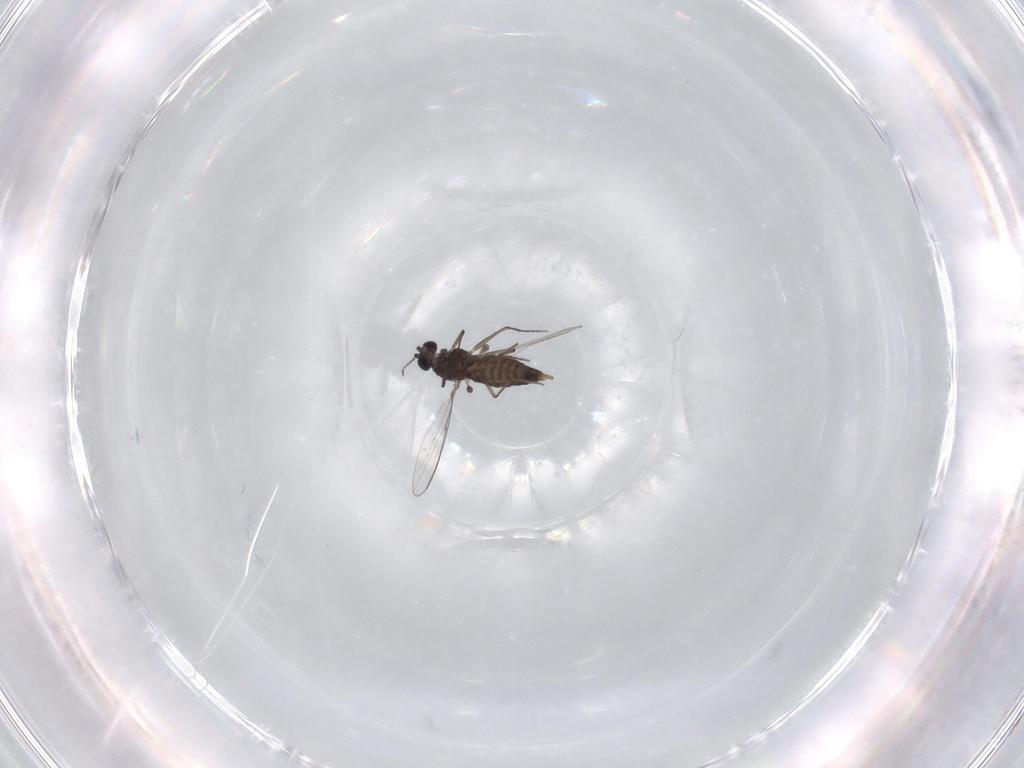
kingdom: Animalia
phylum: Arthropoda
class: Insecta
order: Diptera
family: Chironomidae
